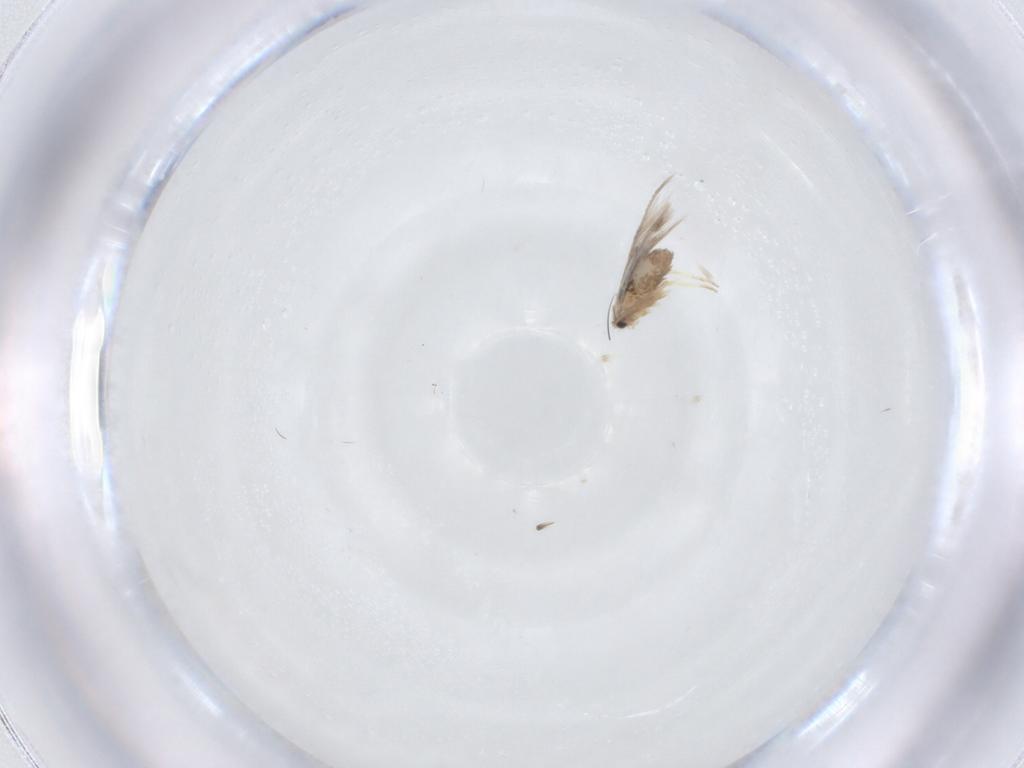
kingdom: Animalia
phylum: Arthropoda
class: Insecta
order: Lepidoptera
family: Nepticulidae
